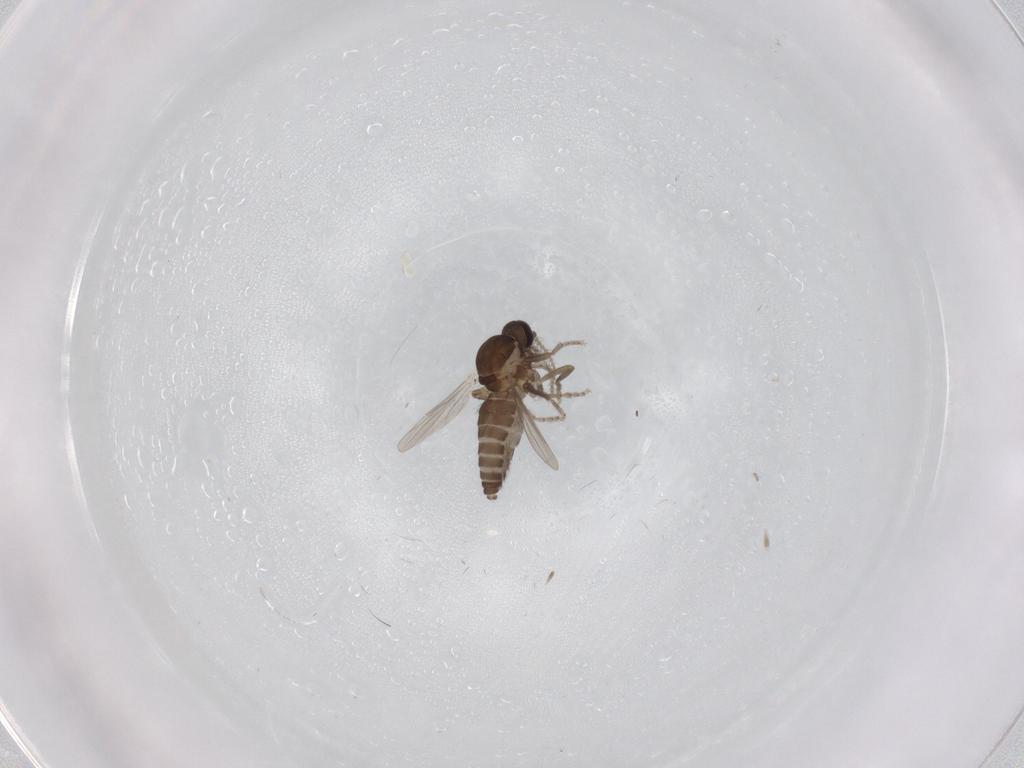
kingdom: Animalia
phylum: Arthropoda
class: Insecta
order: Diptera
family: Ceratopogonidae
